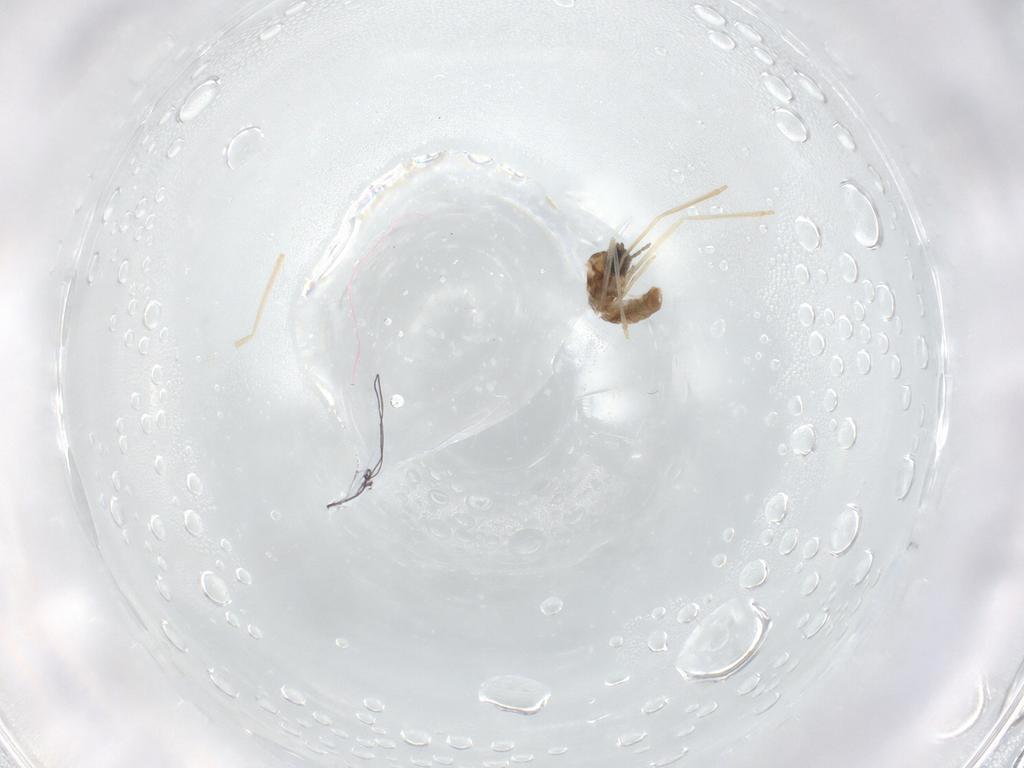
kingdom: Animalia
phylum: Arthropoda
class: Insecta
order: Diptera
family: Cecidomyiidae
